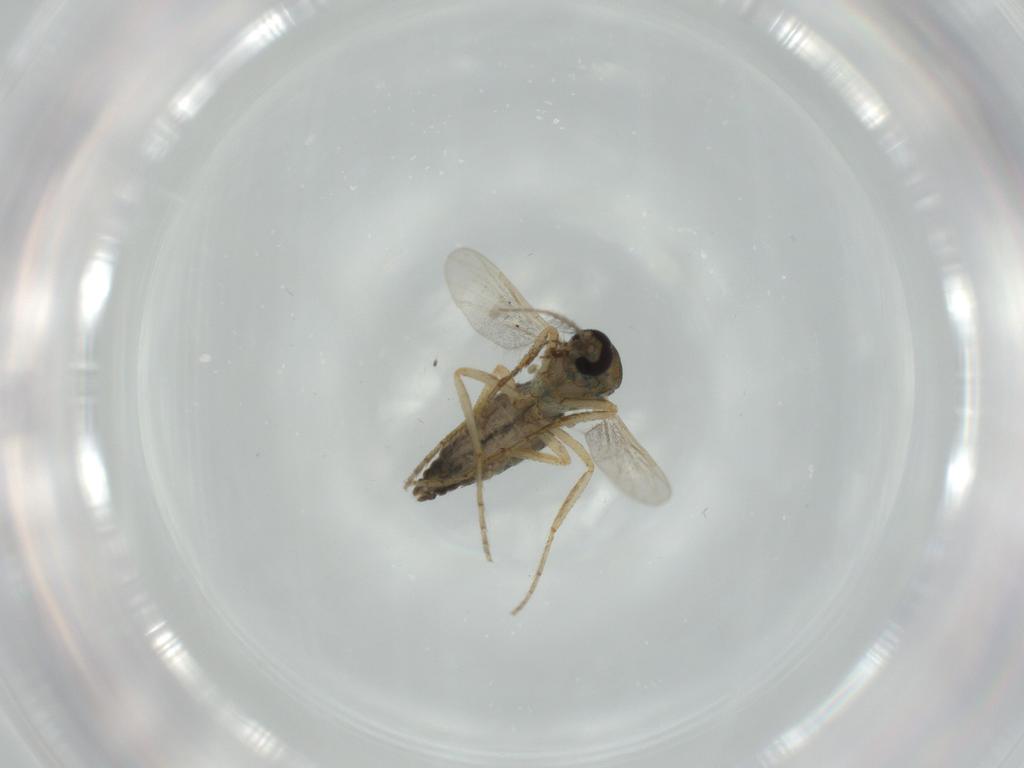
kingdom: Animalia
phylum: Arthropoda
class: Insecta
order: Diptera
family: Ceratopogonidae
